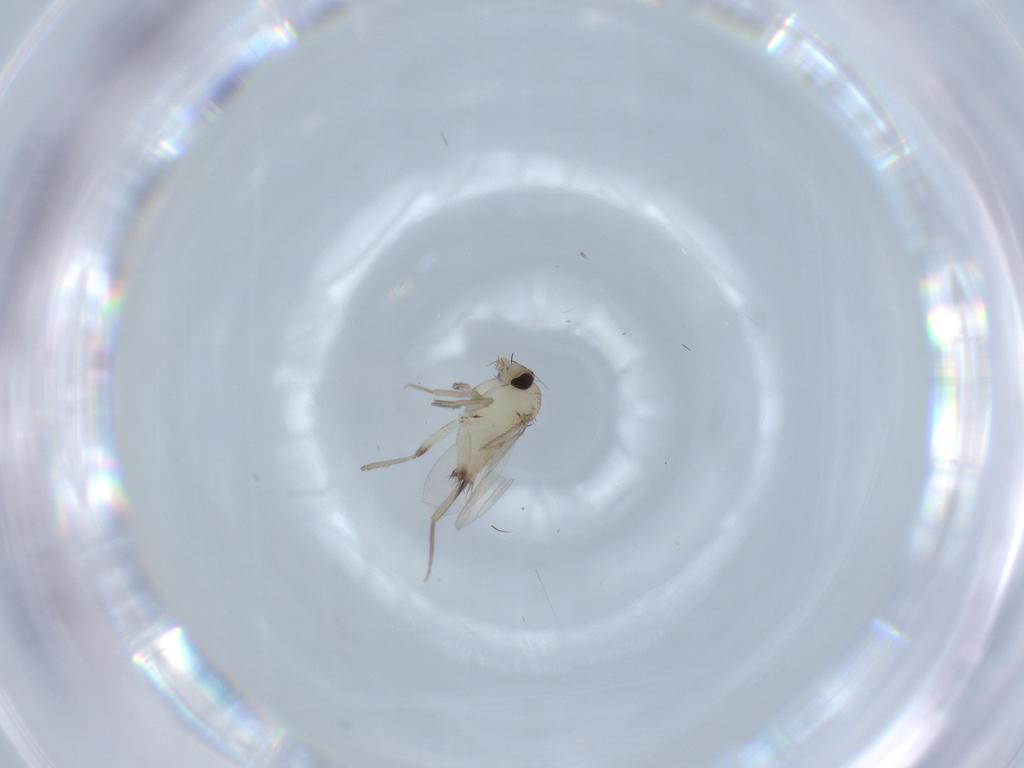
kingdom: Animalia
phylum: Arthropoda
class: Insecta
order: Diptera
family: Phoridae
